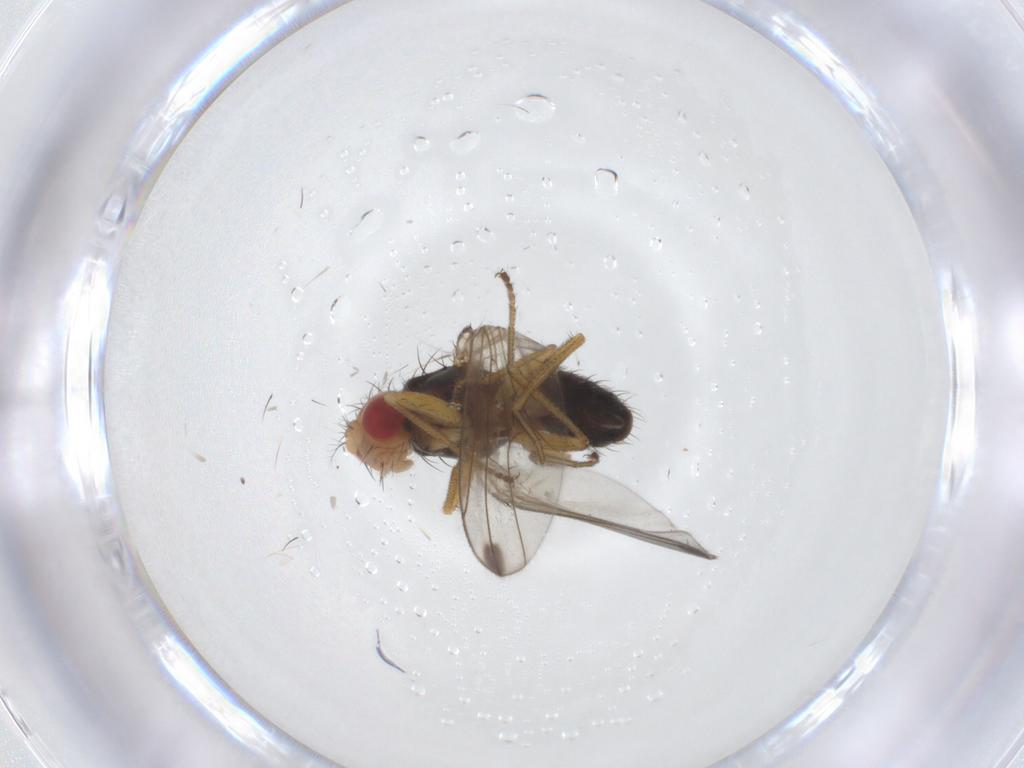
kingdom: Animalia
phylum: Arthropoda
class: Insecta
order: Diptera
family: Drosophilidae
